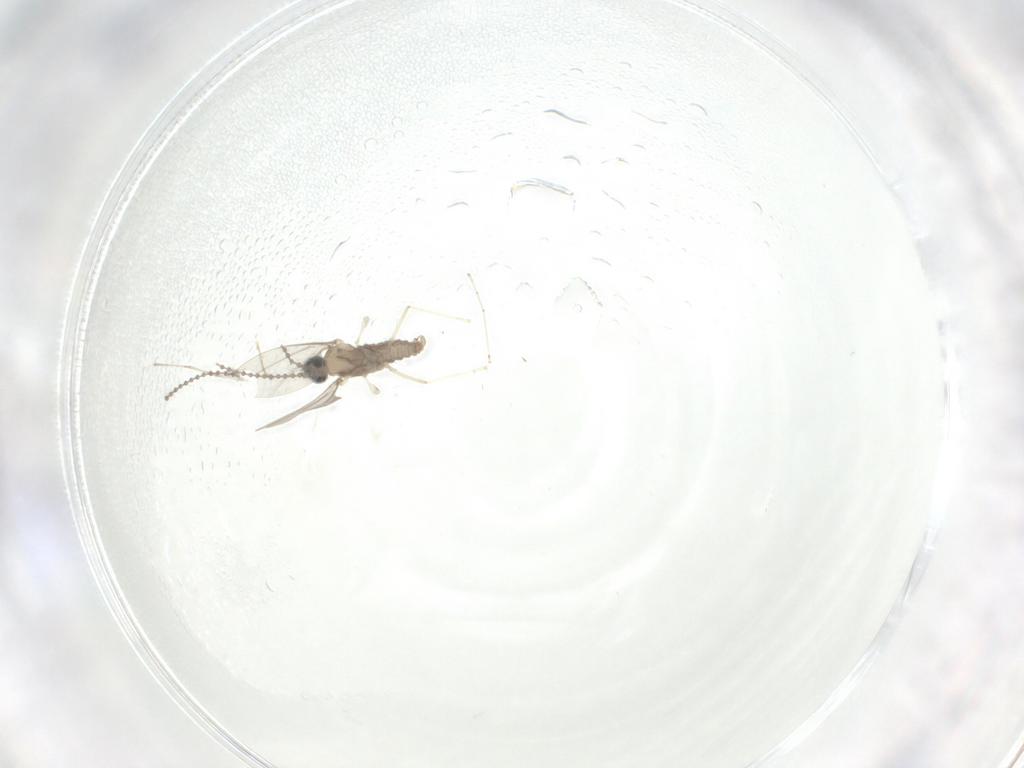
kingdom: Animalia
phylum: Arthropoda
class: Insecta
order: Diptera
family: Cecidomyiidae
